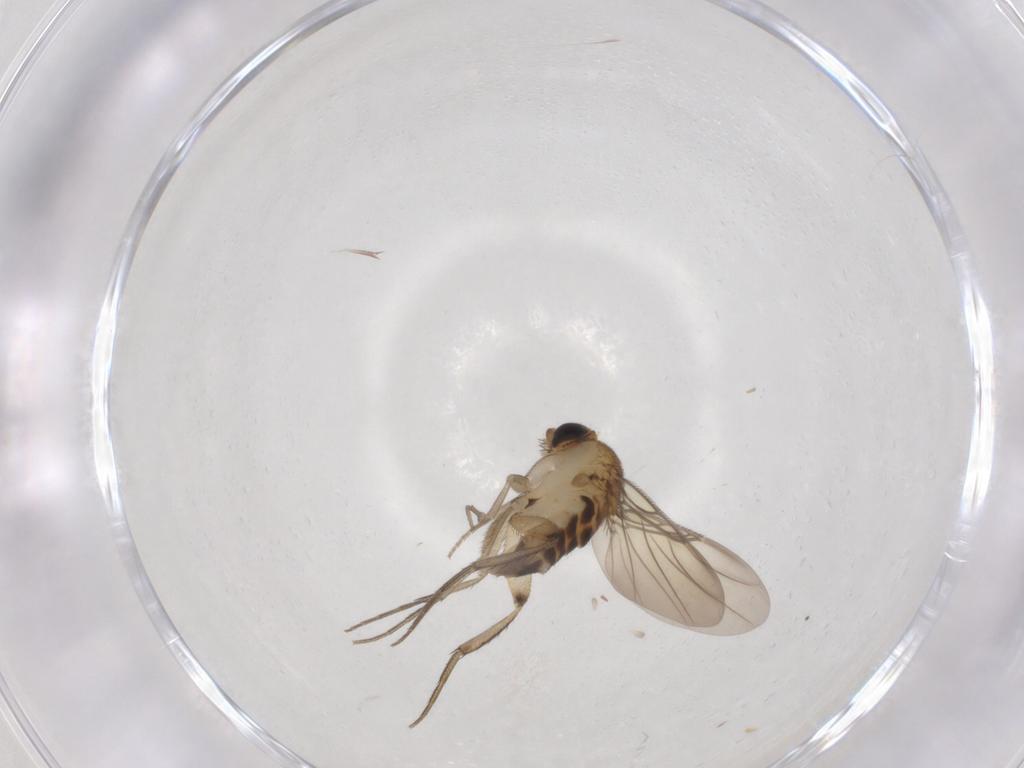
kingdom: Animalia
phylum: Arthropoda
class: Insecta
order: Diptera
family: Phoridae
